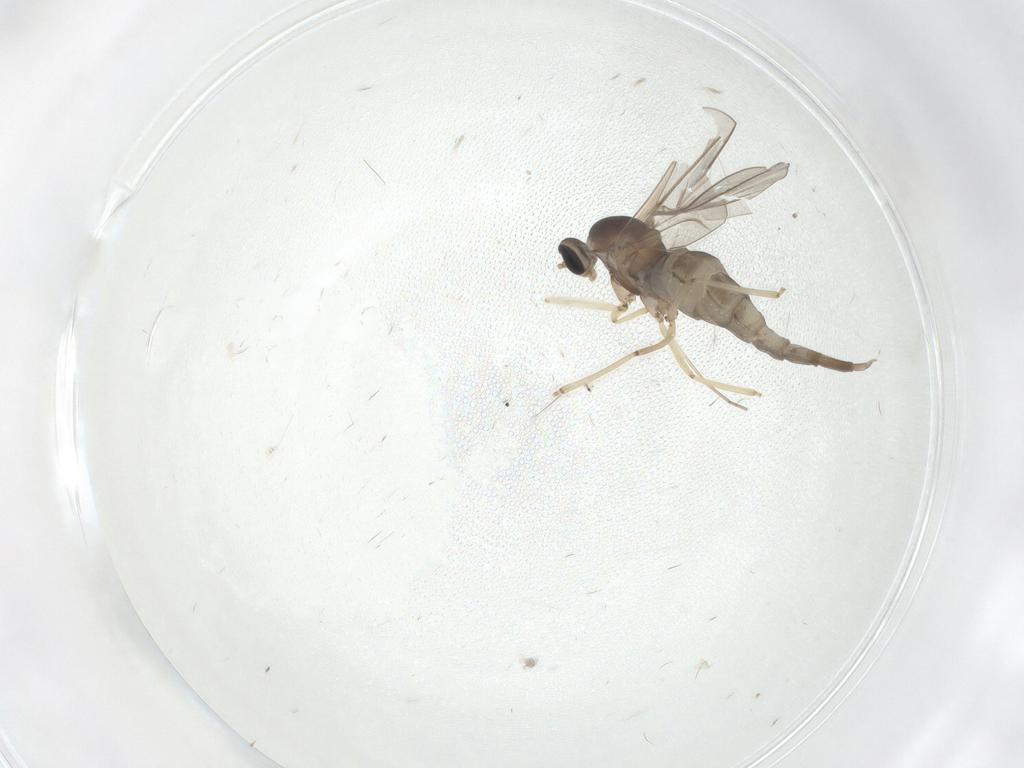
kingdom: Animalia
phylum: Arthropoda
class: Insecta
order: Diptera
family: Cecidomyiidae
